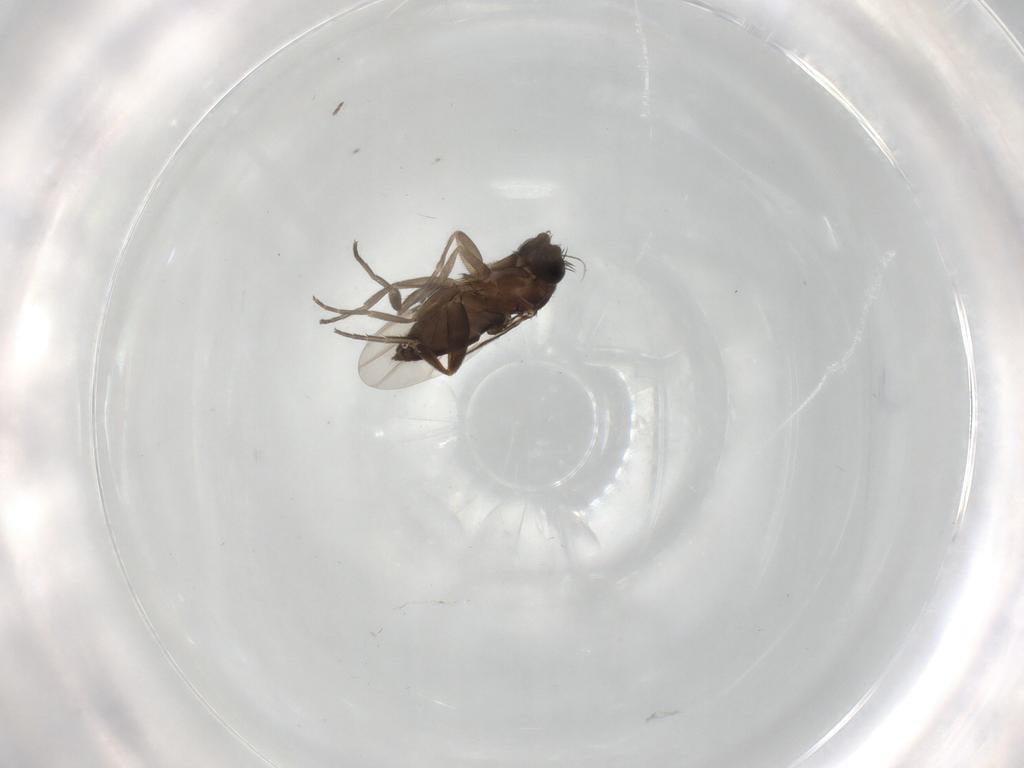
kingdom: Animalia
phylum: Arthropoda
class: Insecta
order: Diptera
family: Phoridae
